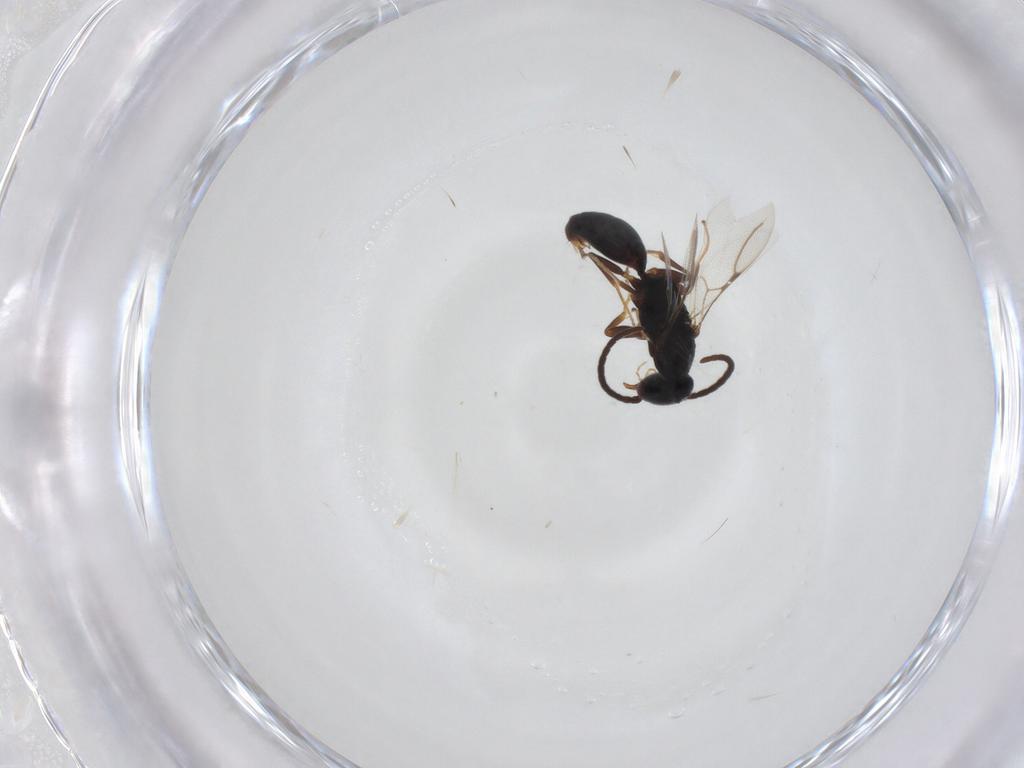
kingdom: Animalia
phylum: Arthropoda
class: Insecta
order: Hymenoptera
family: Bethylidae
